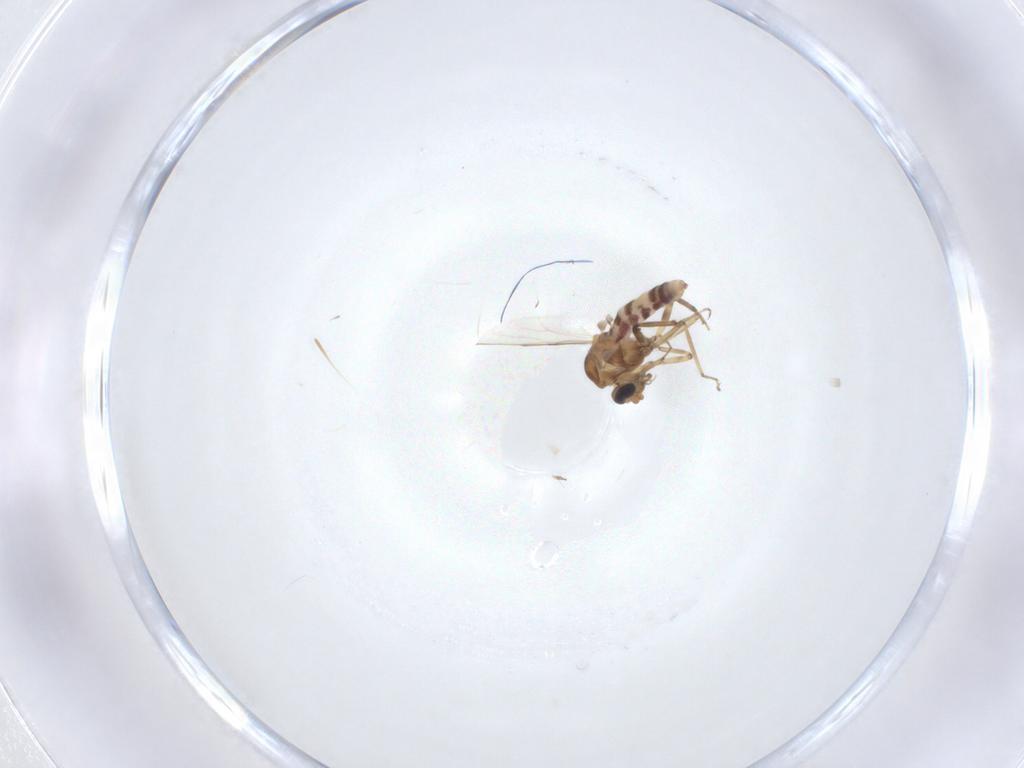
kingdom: Animalia
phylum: Arthropoda
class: Insecta
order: Diptera
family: Ceratopogonidae
